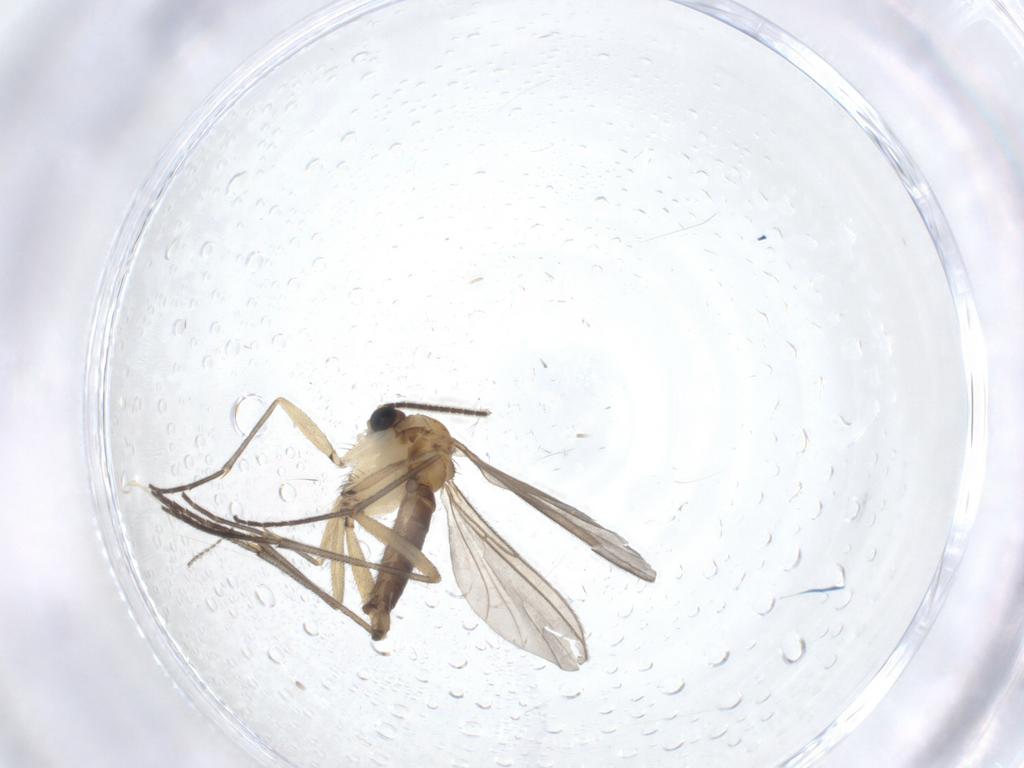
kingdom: Animalia
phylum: Arthropoda
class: Insecta
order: Diptera
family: Sciaridae
